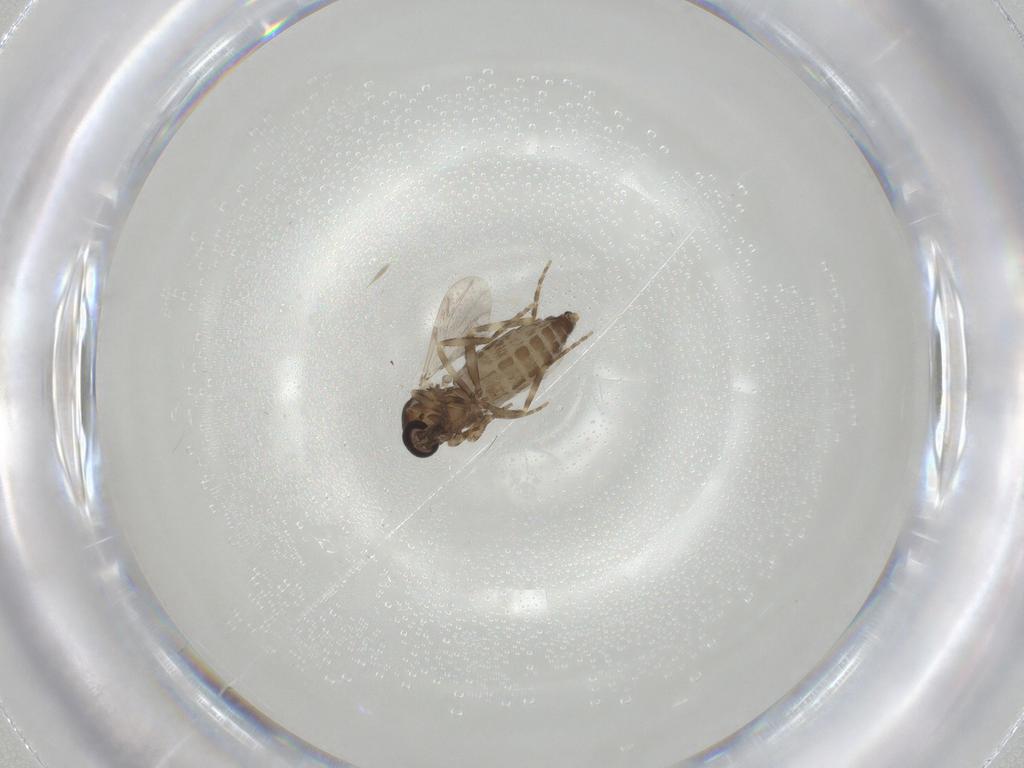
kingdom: Animalia
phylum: Arthropoda
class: Insecta
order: Diptera
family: Ceratopogonidae
